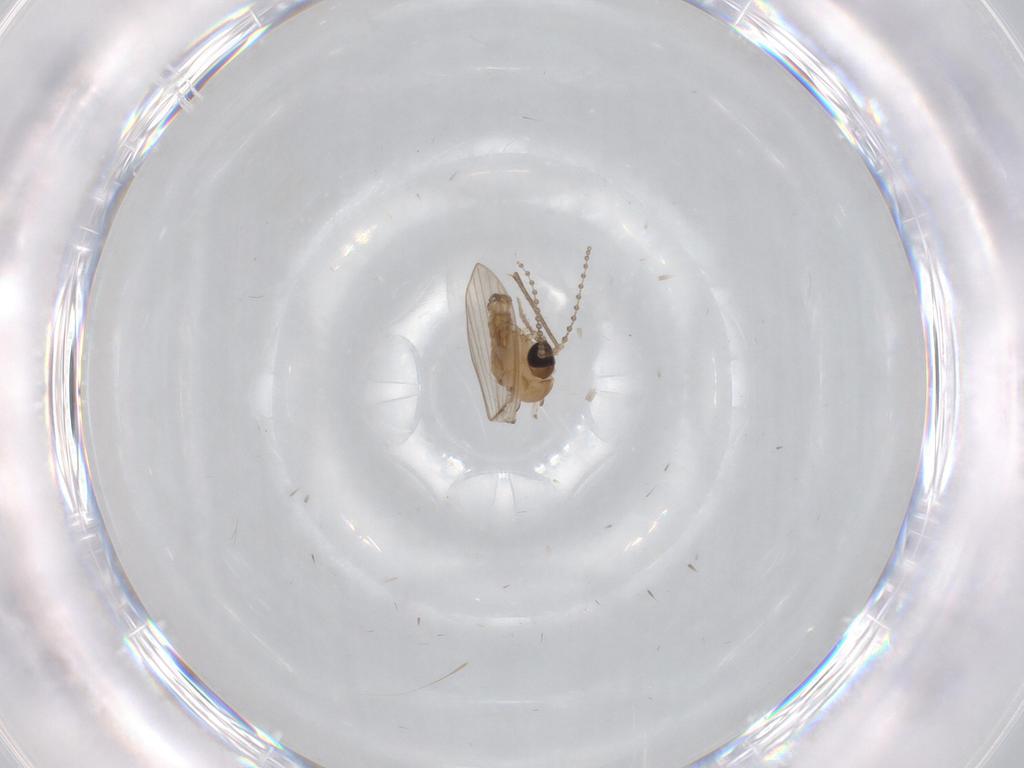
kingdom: Animalia
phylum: Arthropoda
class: Insecta
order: Diptera
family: Psychodidae
